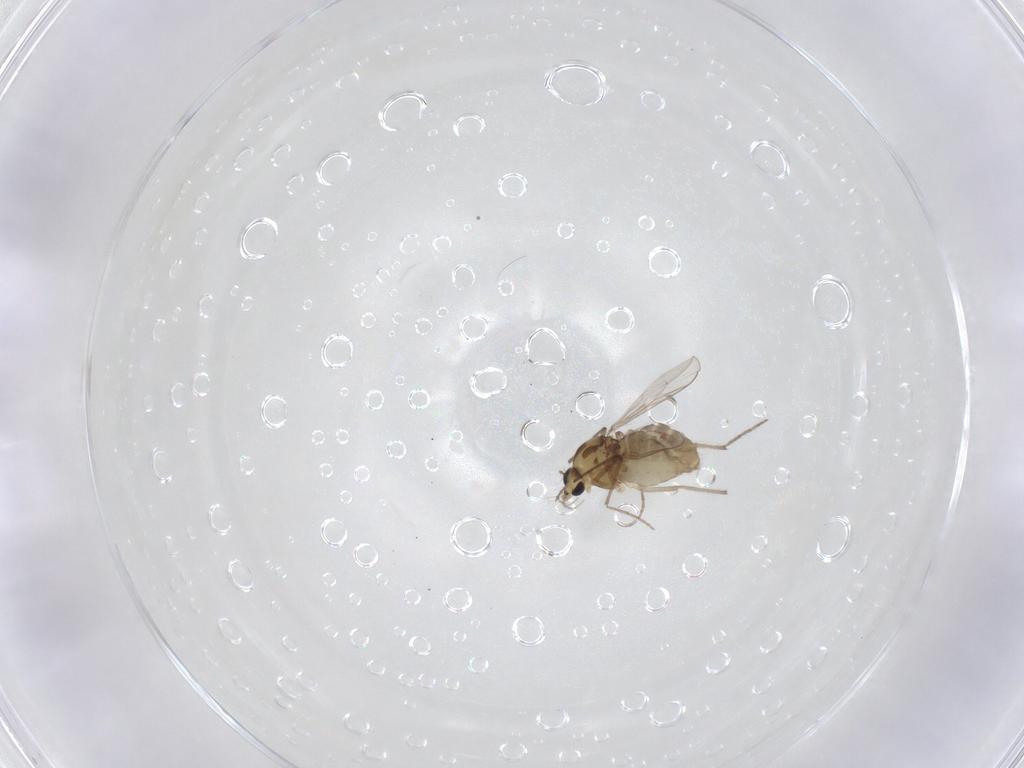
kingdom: Animalia
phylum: Arthropoda
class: Insecta
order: Diptera
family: Chironomidae
